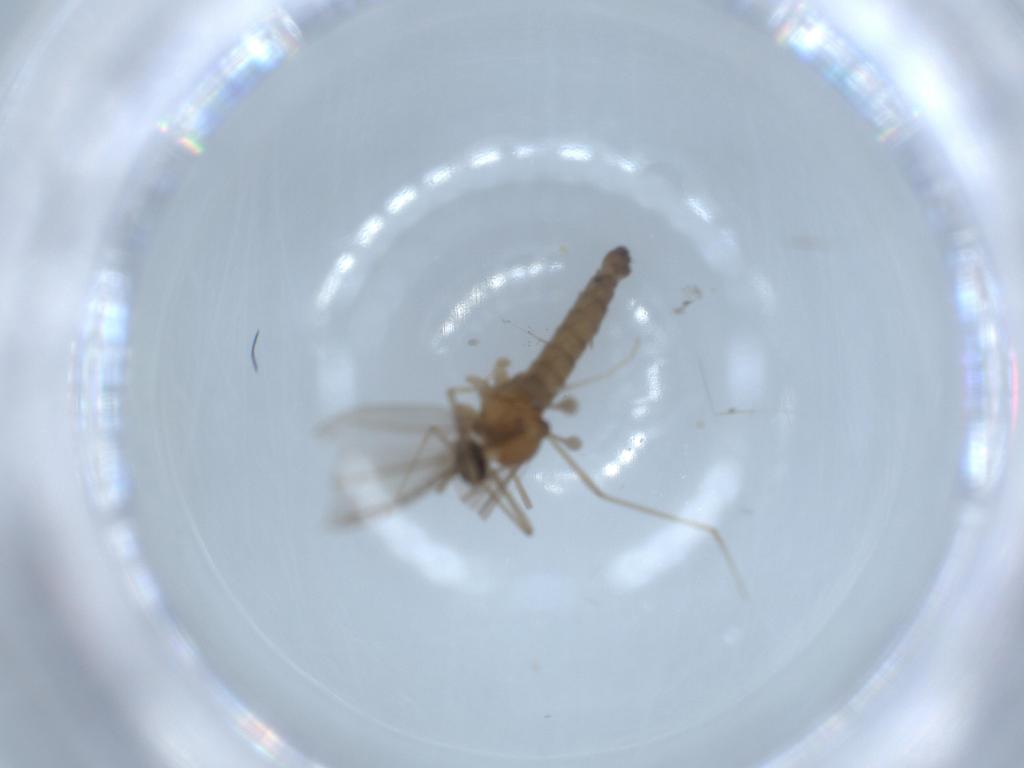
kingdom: Animalia
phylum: Arthropoda
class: Insecta
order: Diptera
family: Cecidomyiidae
